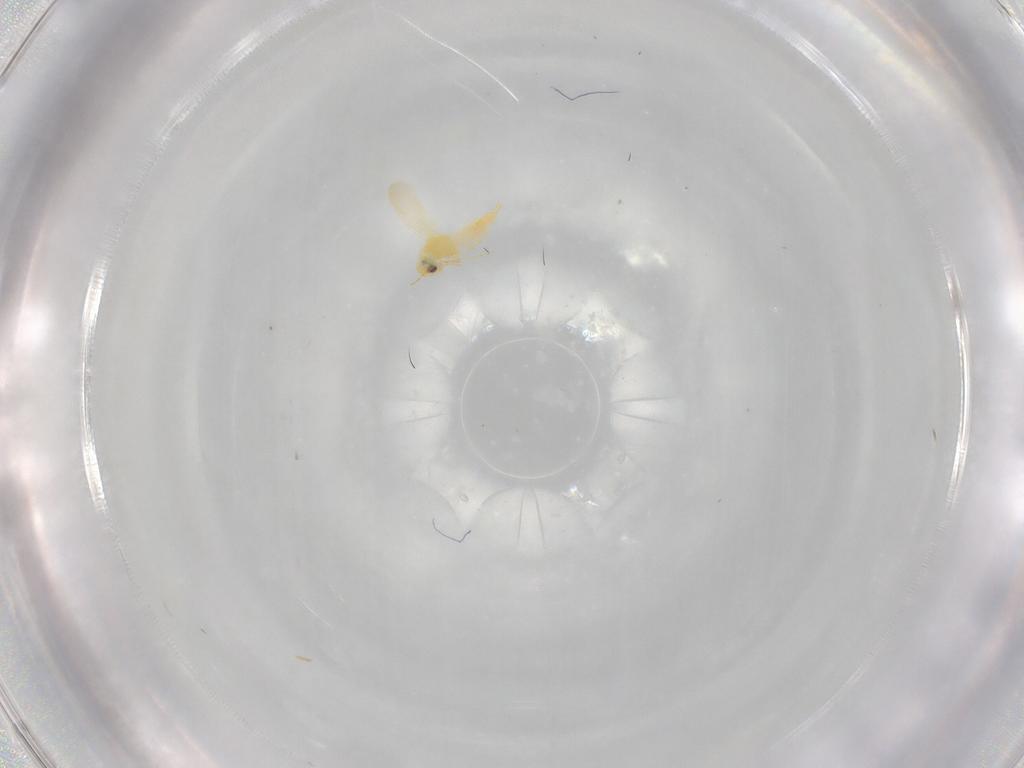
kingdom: Animalia
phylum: Arthropoda
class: Insecta
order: Hemiptera
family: Aleyrodidae
